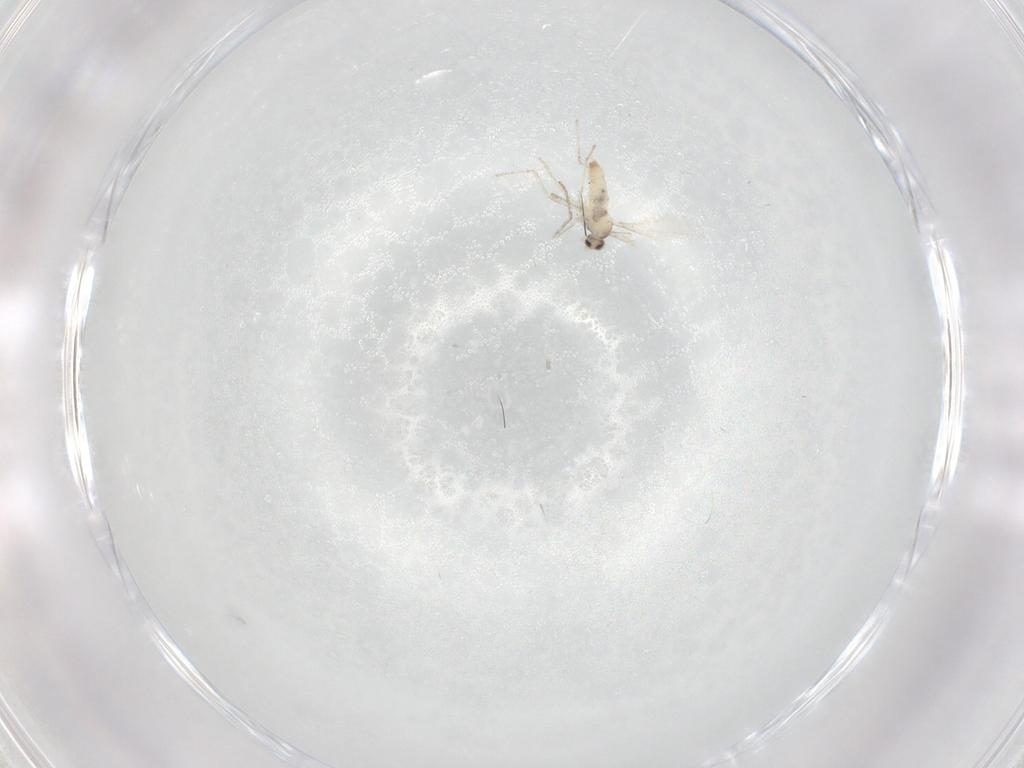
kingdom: Animalia
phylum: Arthropoda
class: Insecta
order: Diptera
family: Cecidomyiidae
